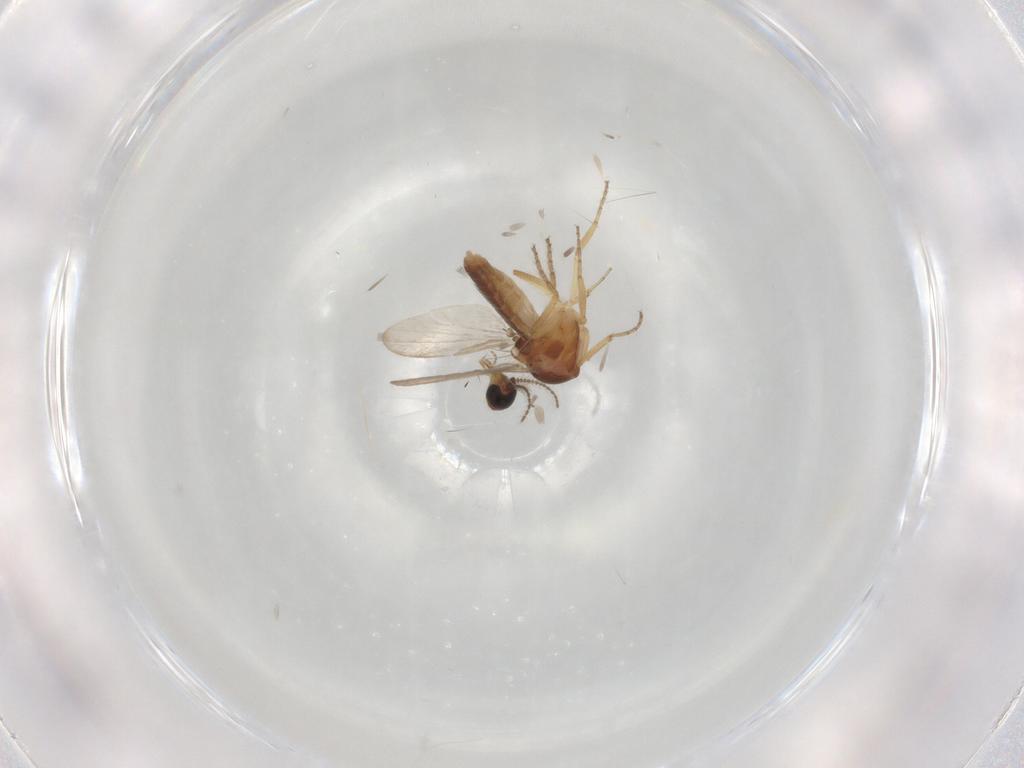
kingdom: Animalia
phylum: Arthropoda
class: Insecta
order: Diptera
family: Ceratopogonidae
